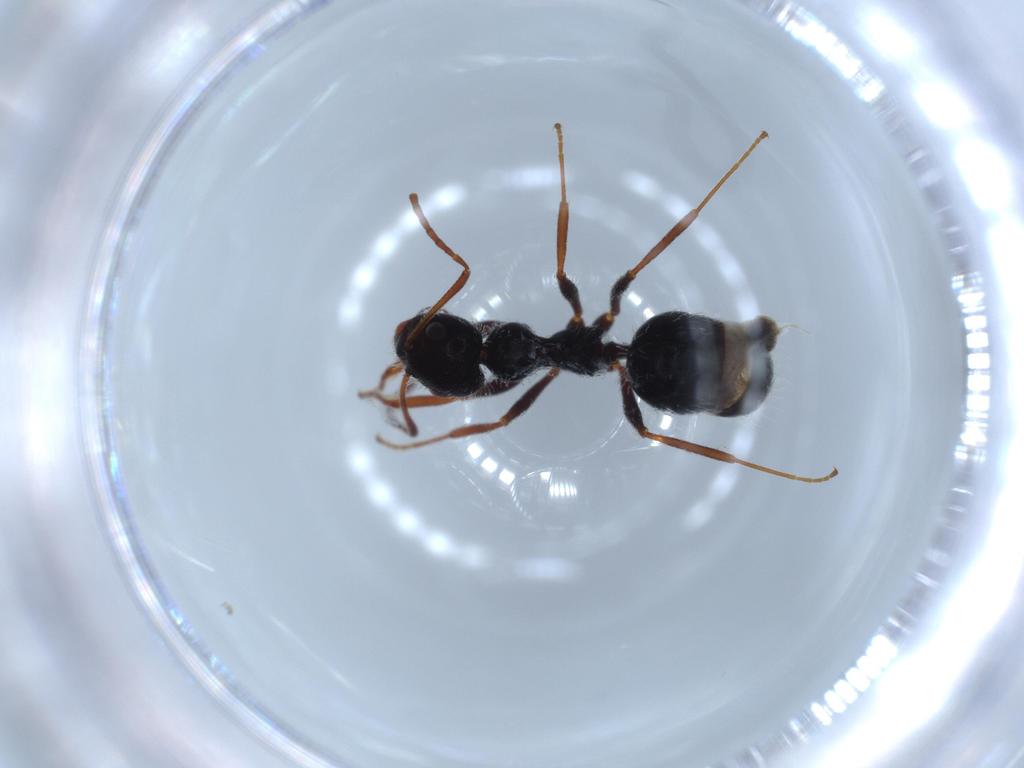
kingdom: Animalia
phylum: Arthropoda
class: Insecta
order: Hymenoptera
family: Formicidae
